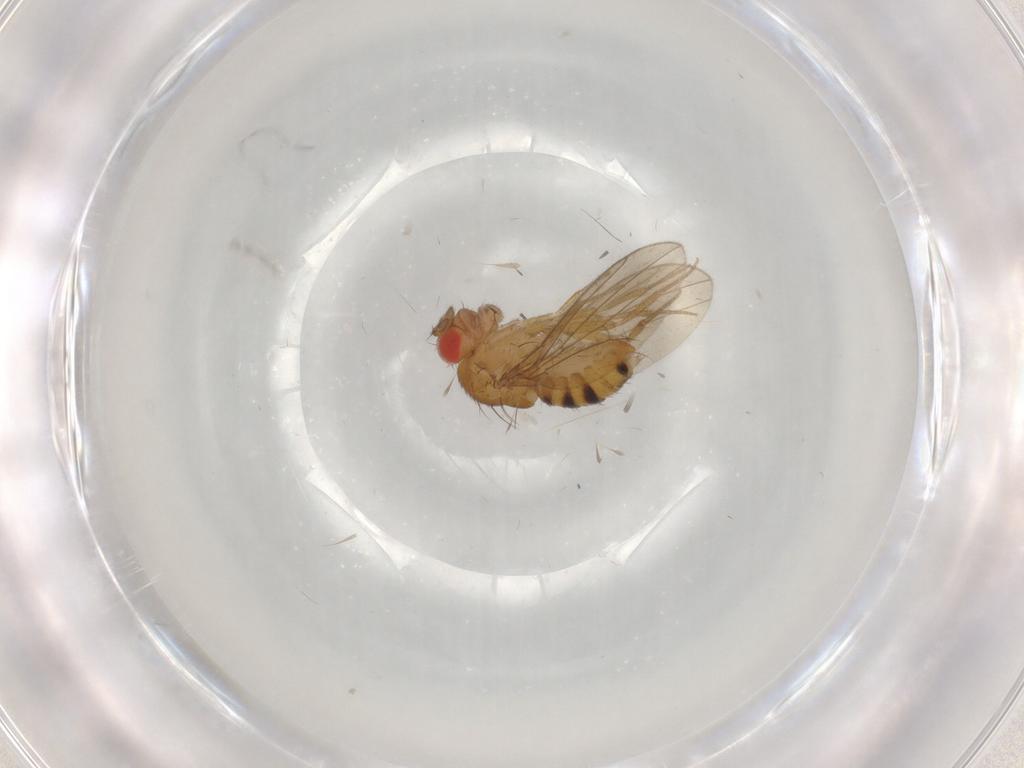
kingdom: Animalia
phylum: Arthropoda
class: Insecta
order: Diptera
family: Drosophilidae
